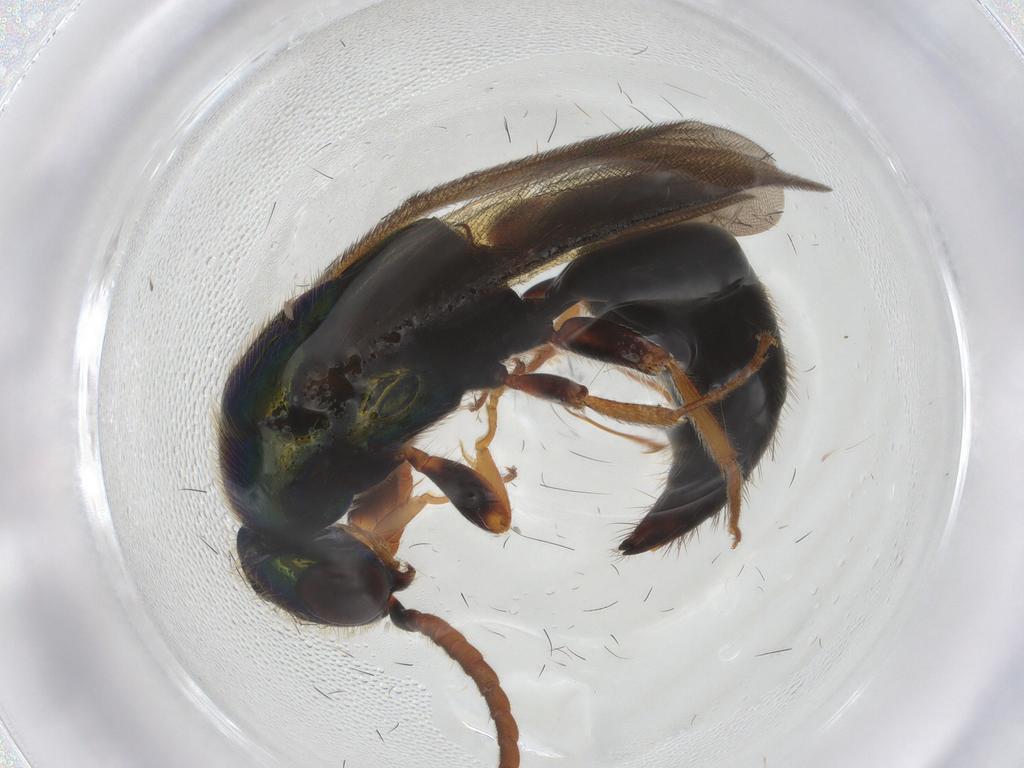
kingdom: Animalia
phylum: Arthropoda
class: Insecta
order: Hymenoptera
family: Bethylidae
